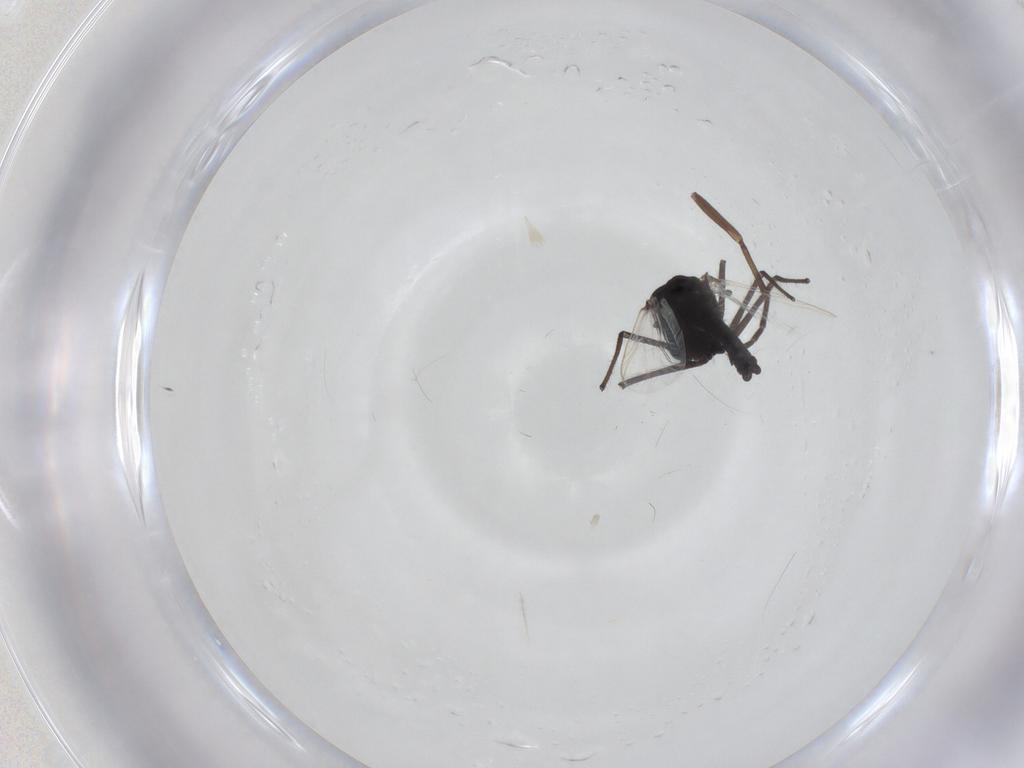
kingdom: Animalia
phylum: Arthropoda
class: Insecta
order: Diptera
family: Chironomidae
